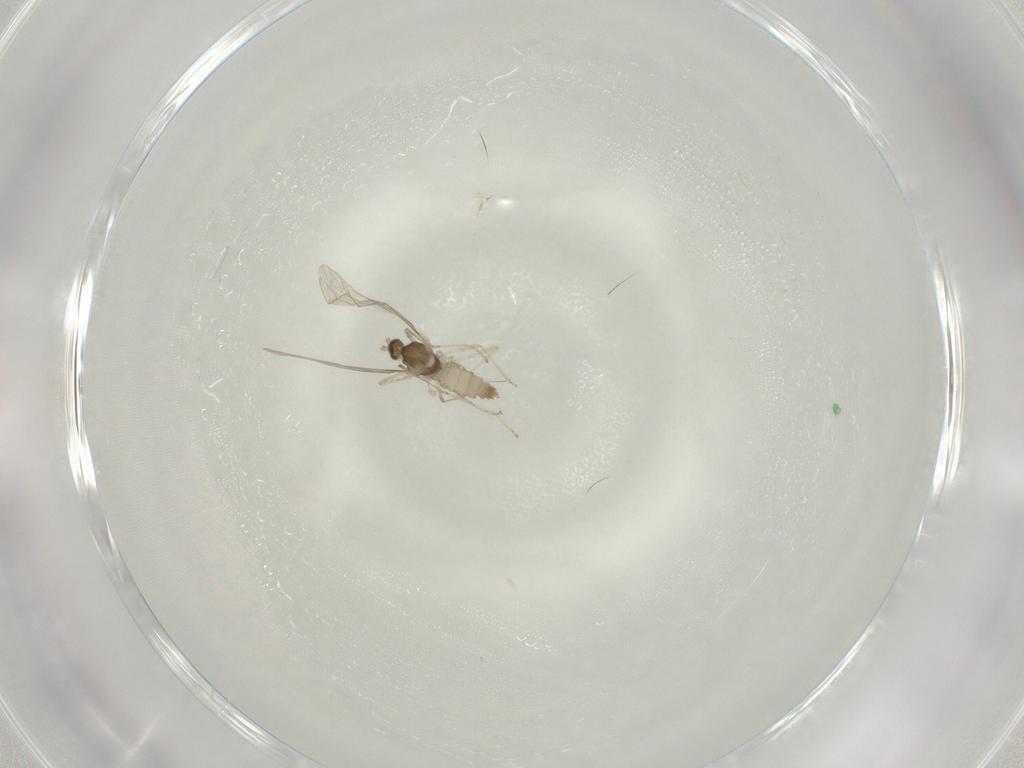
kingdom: Animalia
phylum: Arthropoda
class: Insecta
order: Diptera
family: Cecidomyiidae
